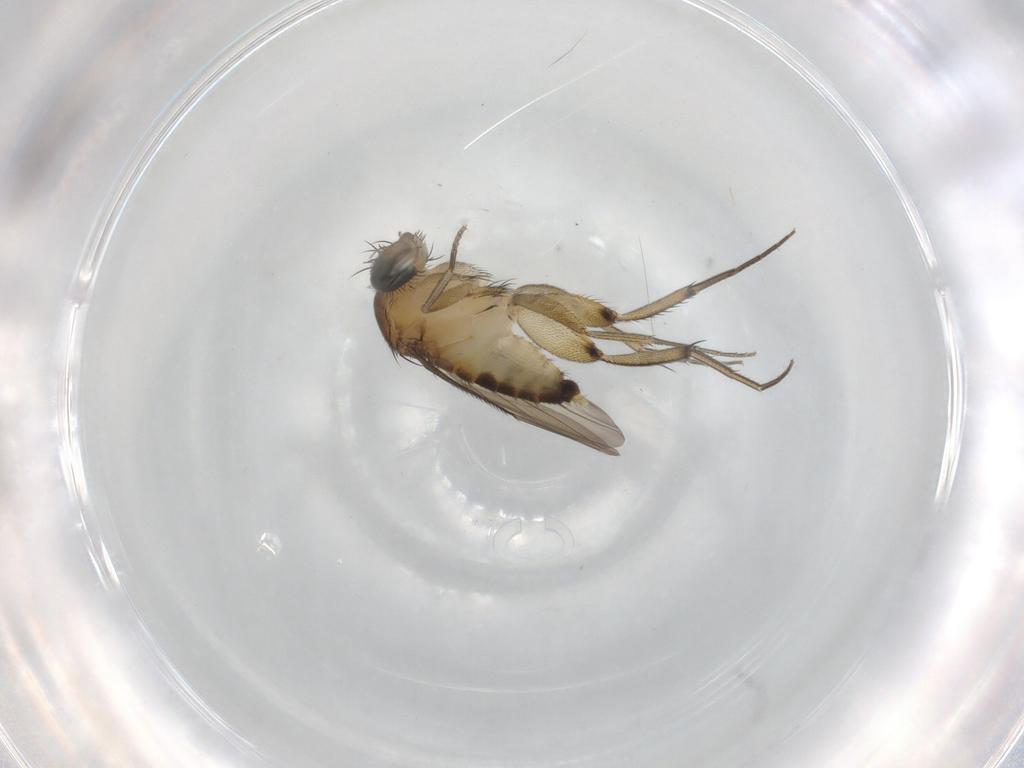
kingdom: Animalia
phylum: Arthropoda
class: Insecta
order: Diptera
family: Phoridae
